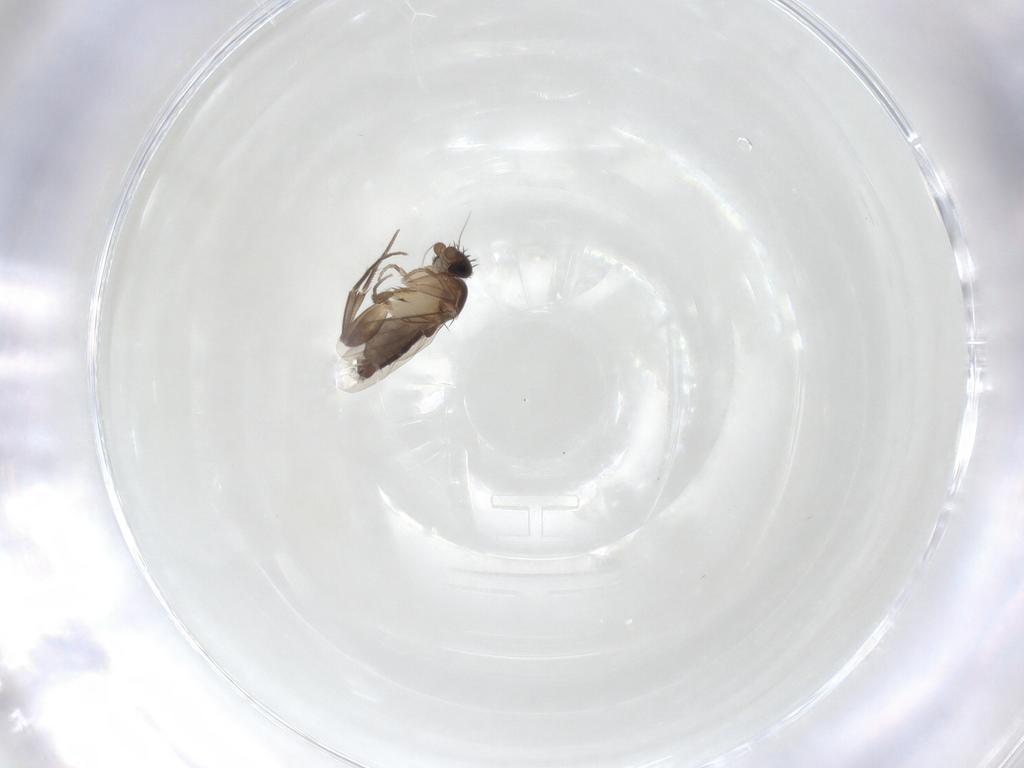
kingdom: Animalia
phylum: Arthropoda
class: Insecta
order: Diptera
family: Phoridae
